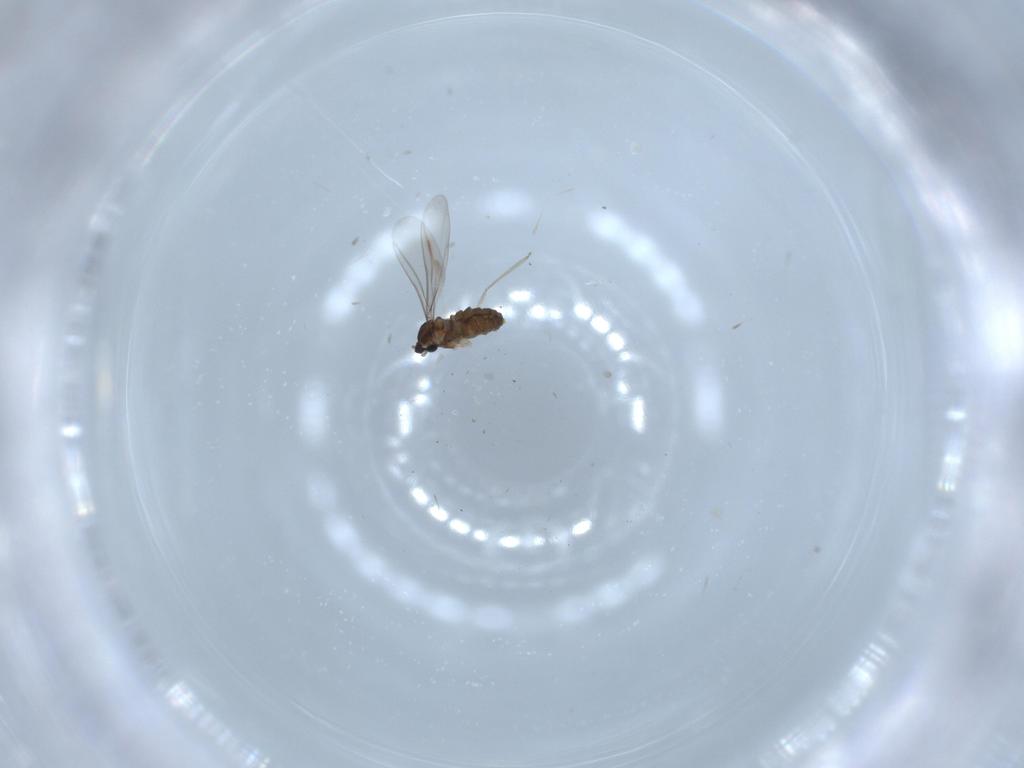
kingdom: Animalia
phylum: Arthropoda
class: Insecta
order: Diptera
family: Cecidomyiidae
